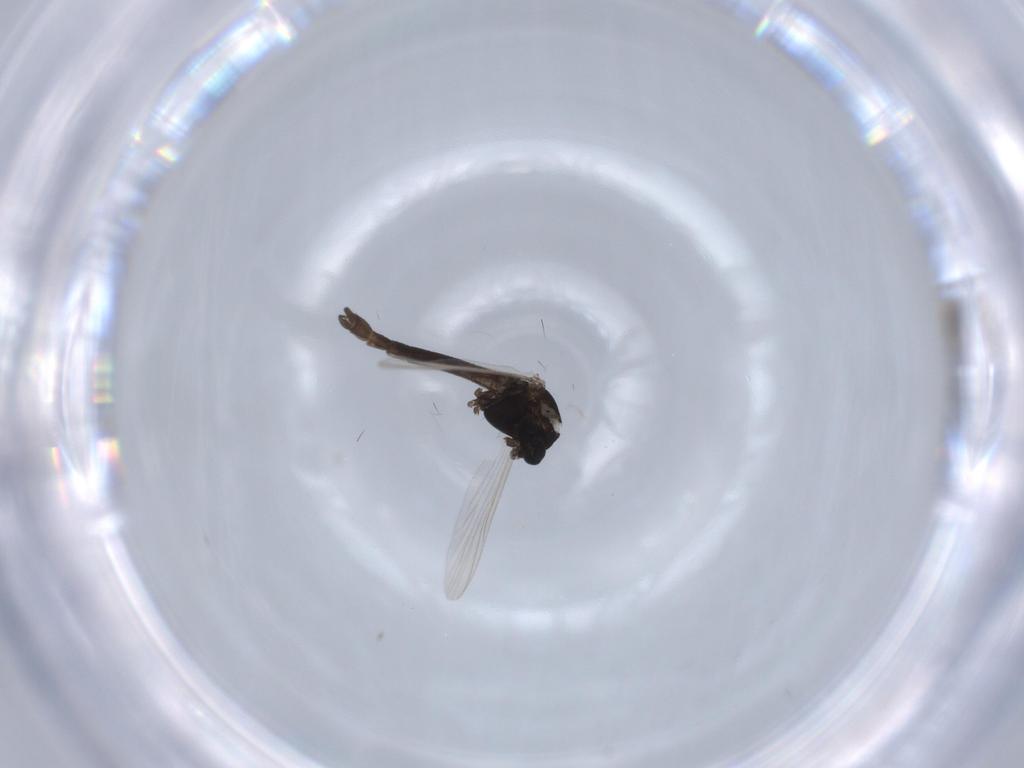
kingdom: Animalia
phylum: Arthropoda
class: Insecta
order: Diptera
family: Chironomidae
